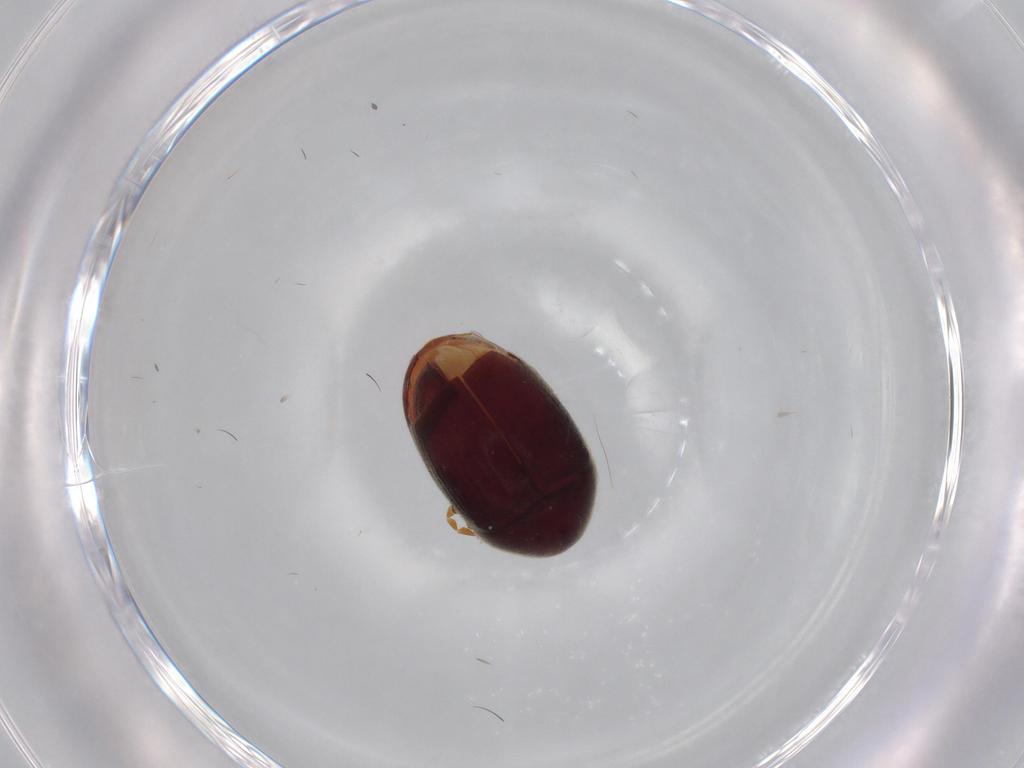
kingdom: Animalia
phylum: Arthropoda
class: Insecta
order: Coleoptera
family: Ptinidae
